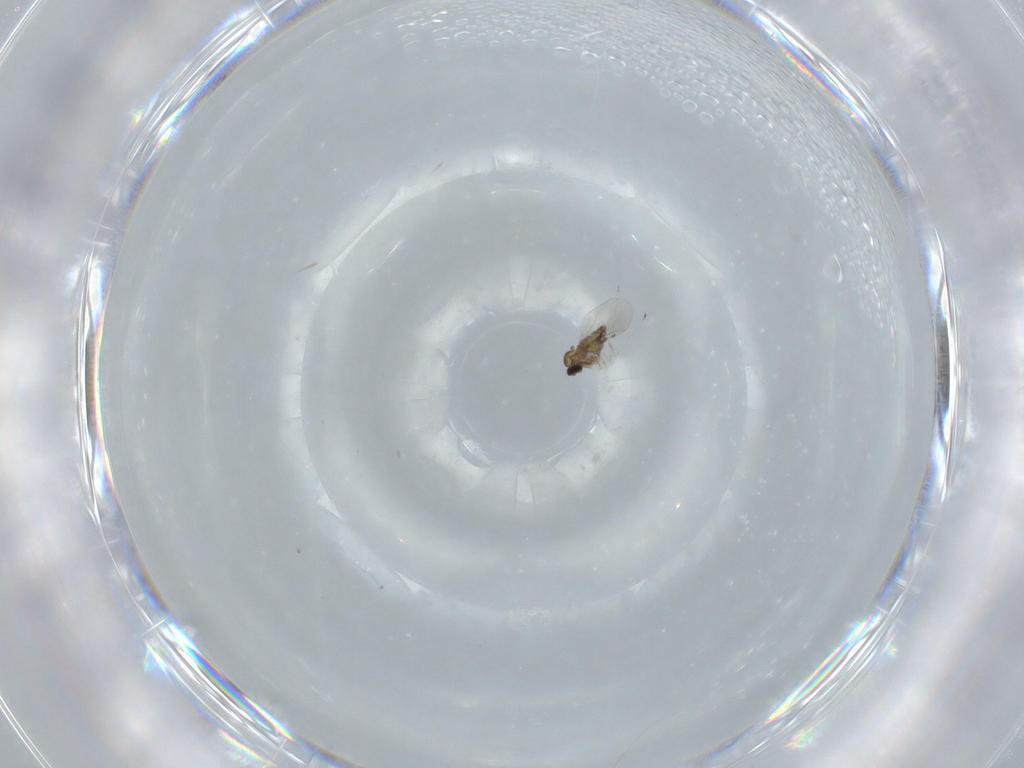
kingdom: Animalia
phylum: Arthropoda
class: Insecta
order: Diptera
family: Cecidomyiidae
